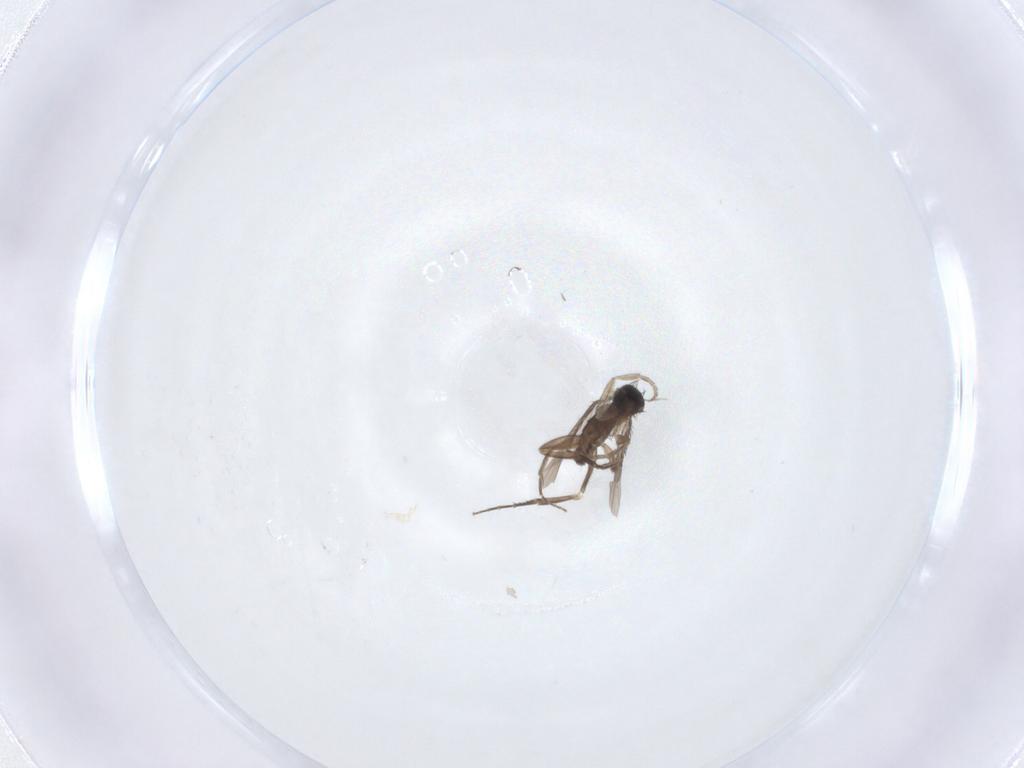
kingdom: Animalia
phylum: Arthropoda
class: Insecta
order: Diptera
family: Phoridae
